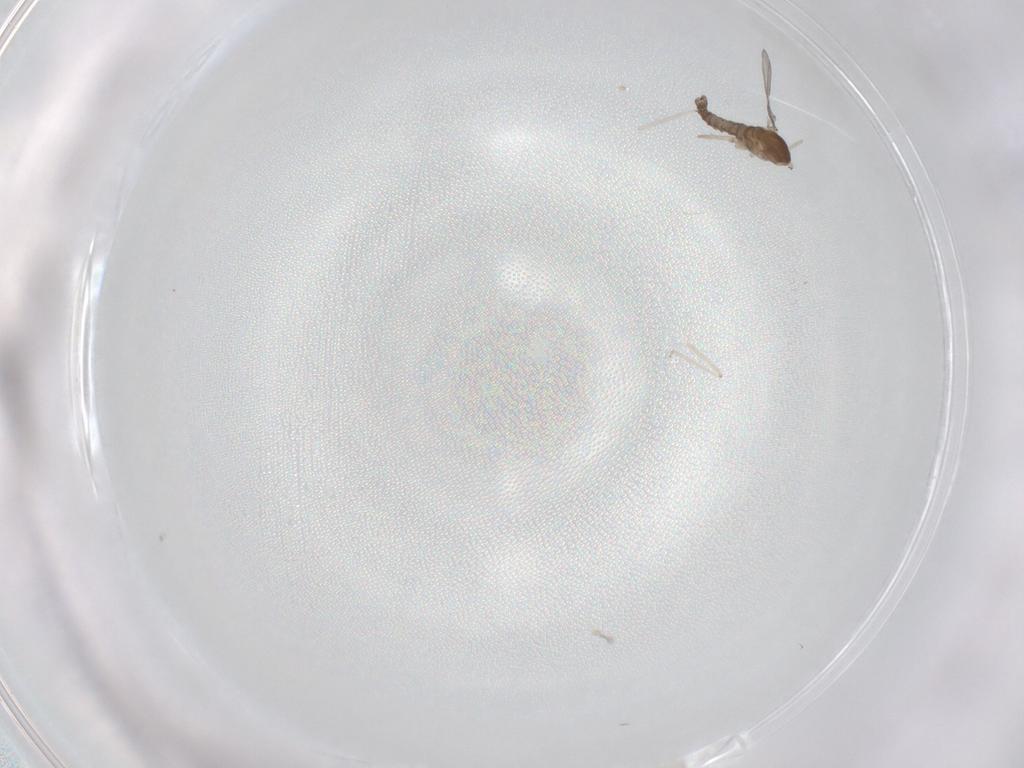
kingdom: Animalia
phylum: Arthropoda
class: Insecta
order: Diptera
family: Cecidomyiidae
